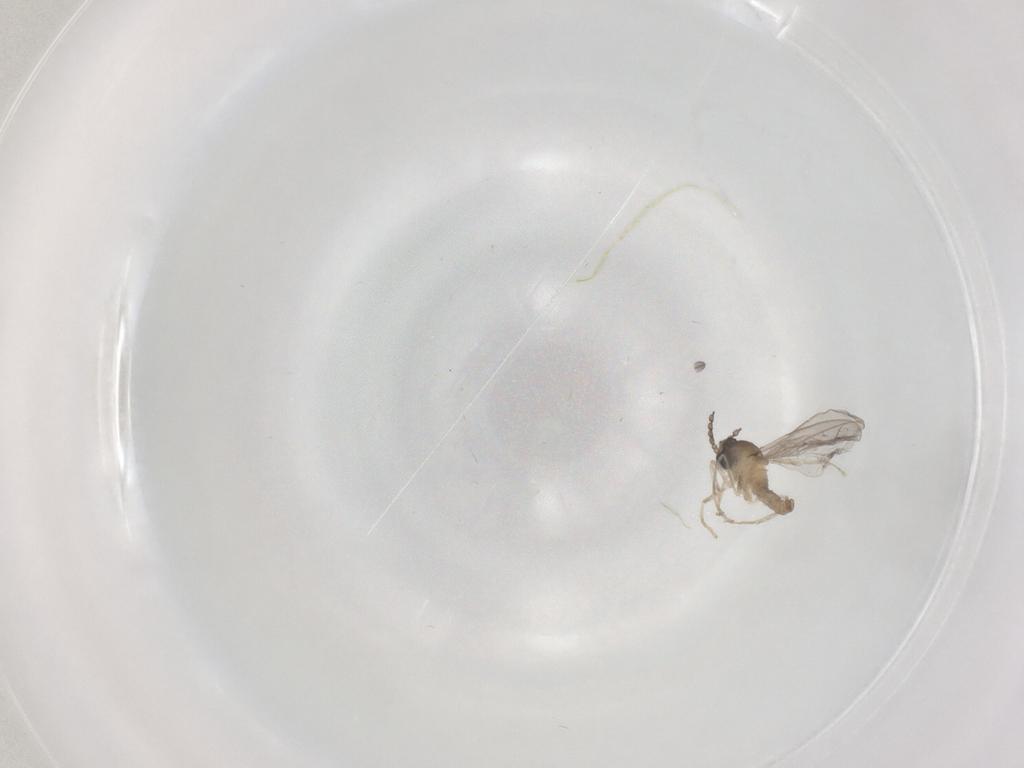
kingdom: Animalia
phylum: Arthropoda
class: Insecta
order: Diptera
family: Cecidomyiidae
